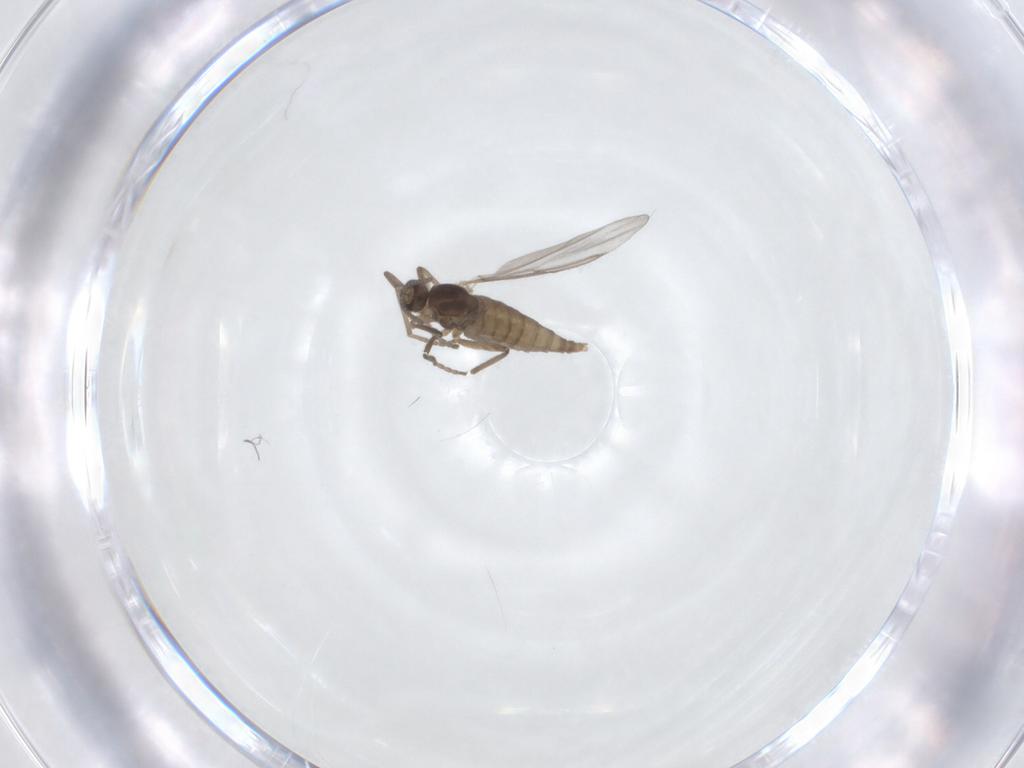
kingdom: Animalia
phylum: Arthropoda
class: Insecta
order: Diptera
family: Cecidomyiidae
